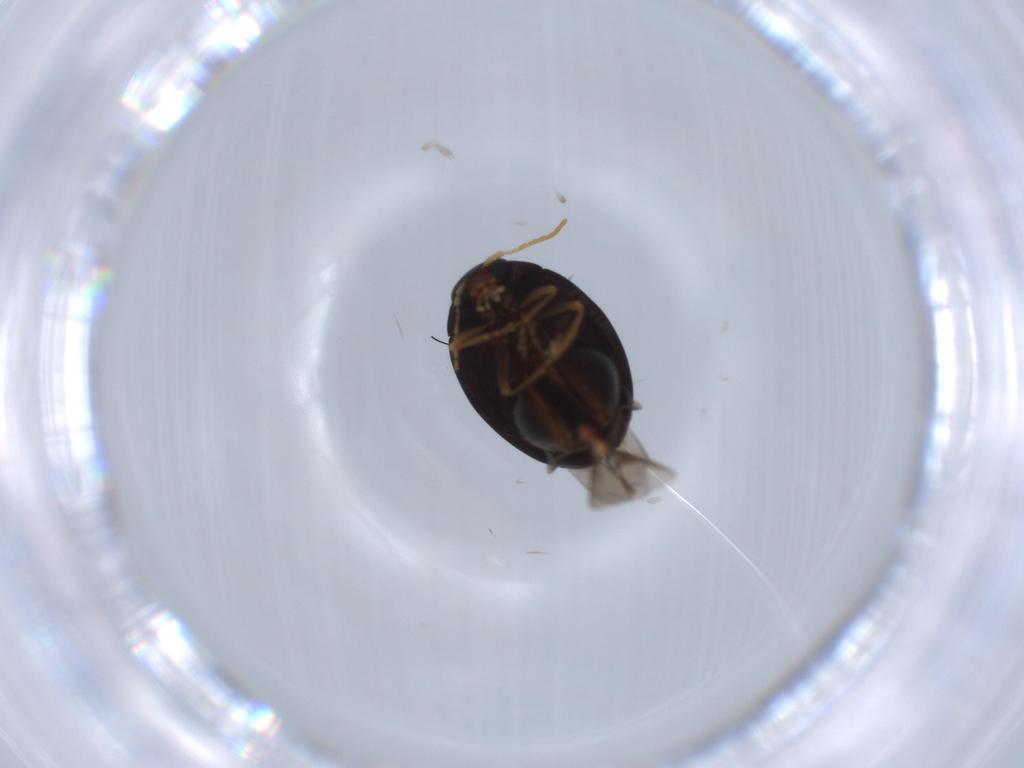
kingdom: Animalia
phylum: Arthropoda
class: Insecta
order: Coleoptera
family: Chrysomelidae
